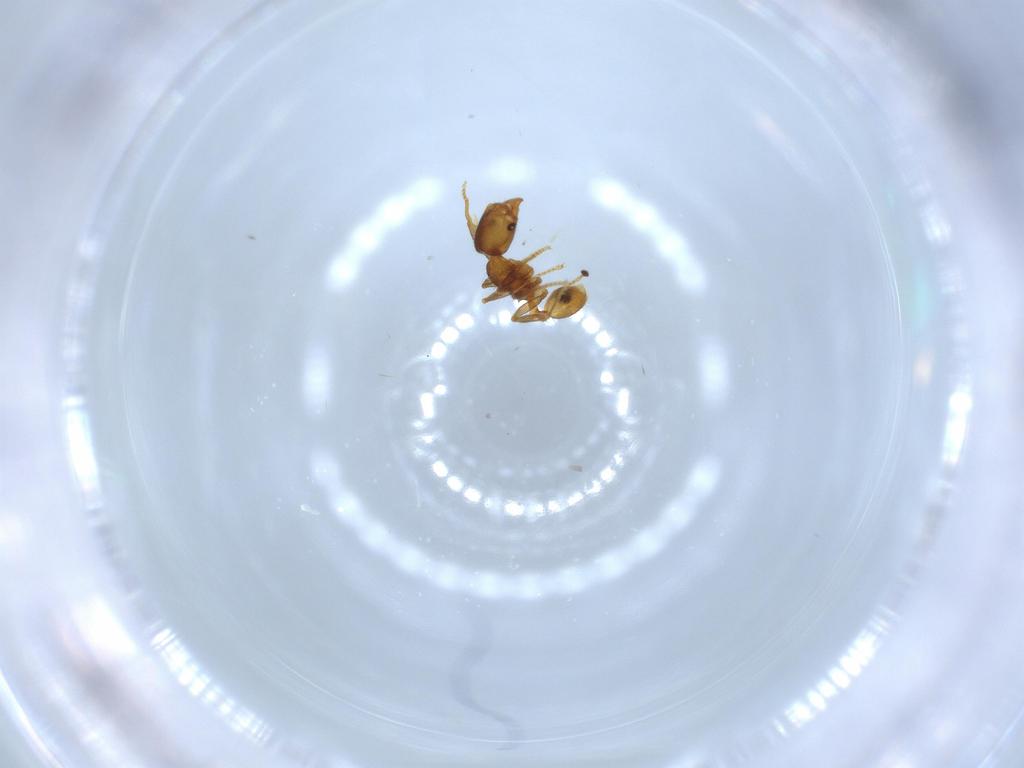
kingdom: Animalia
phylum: Arthropoda
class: Insecta
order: Hymenoptera
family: Formicidae
